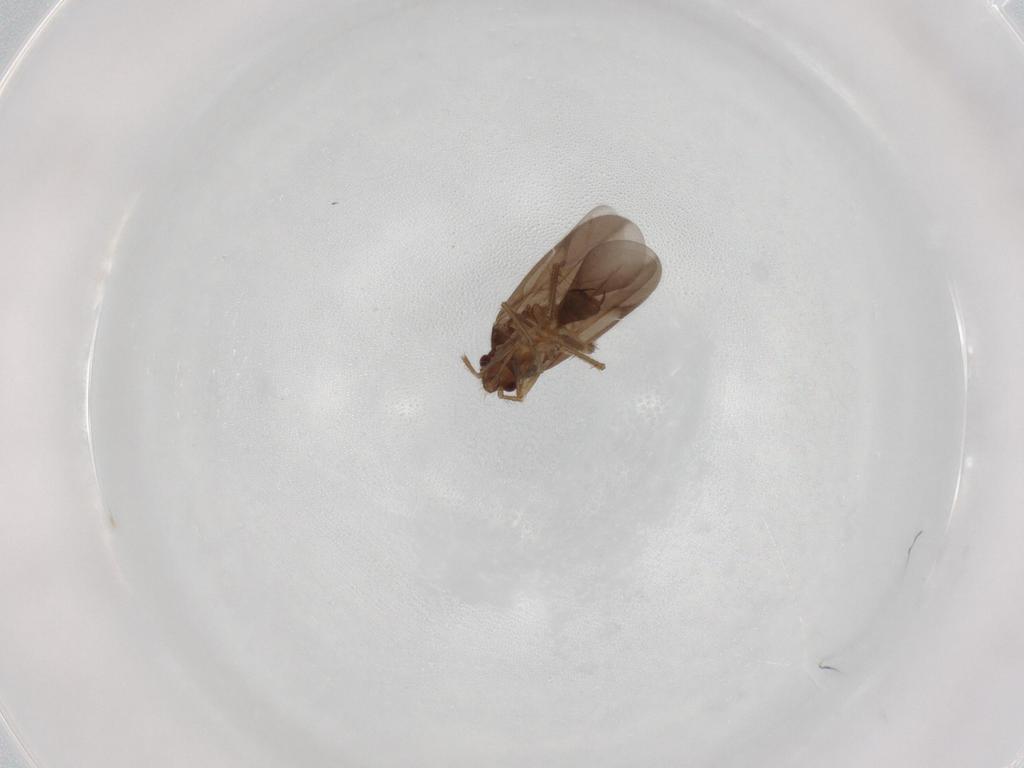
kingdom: Animalia
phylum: Arthropoda
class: Insecta
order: Hemiptera
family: Ceratocombidae
